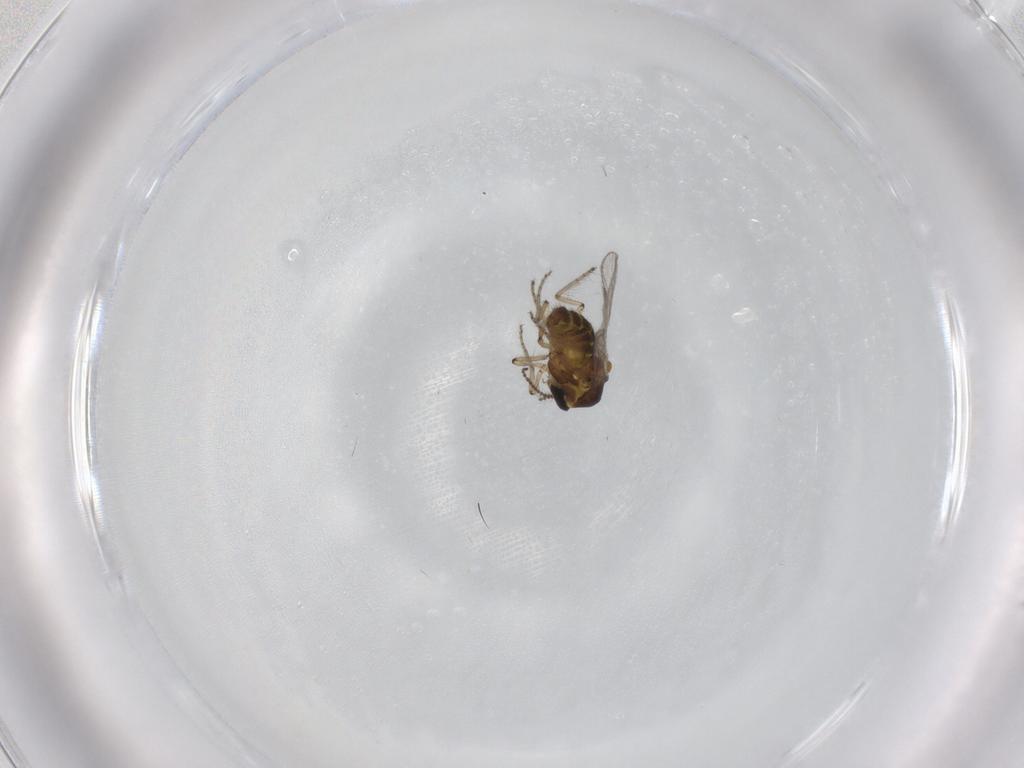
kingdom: Animalia
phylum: Arthropoda
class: Insecta
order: Diptera
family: Ceratopogonidae
